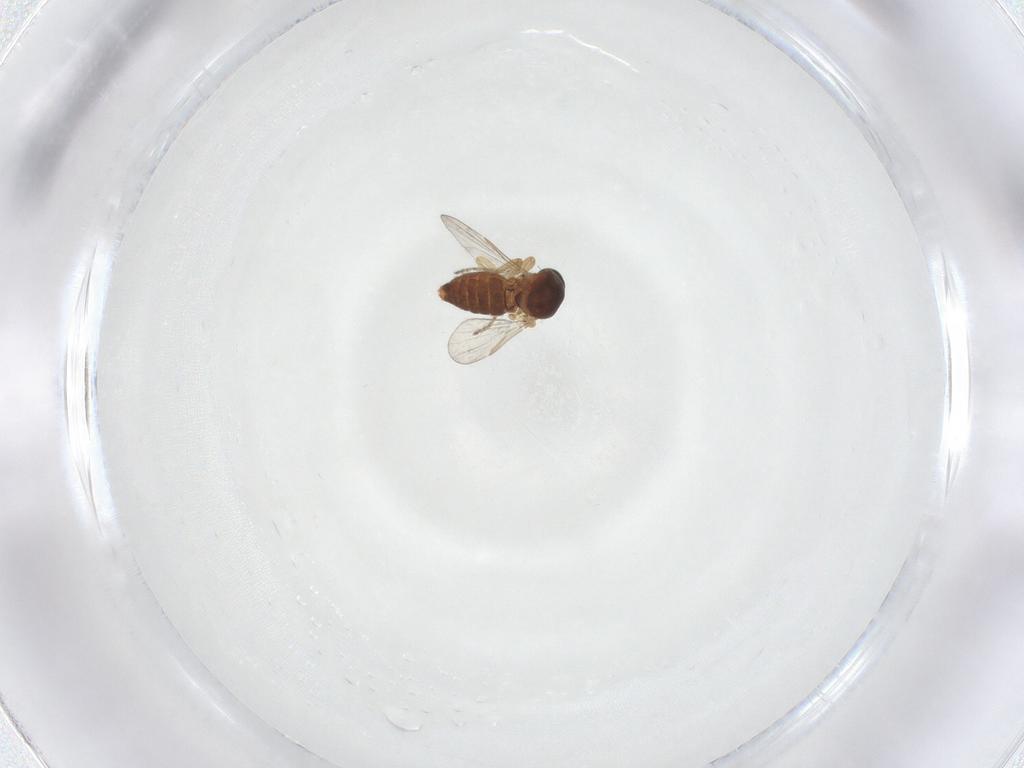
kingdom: Animalia
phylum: Arthropoda
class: Insecta
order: Diptera
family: Ceratopogonidae
